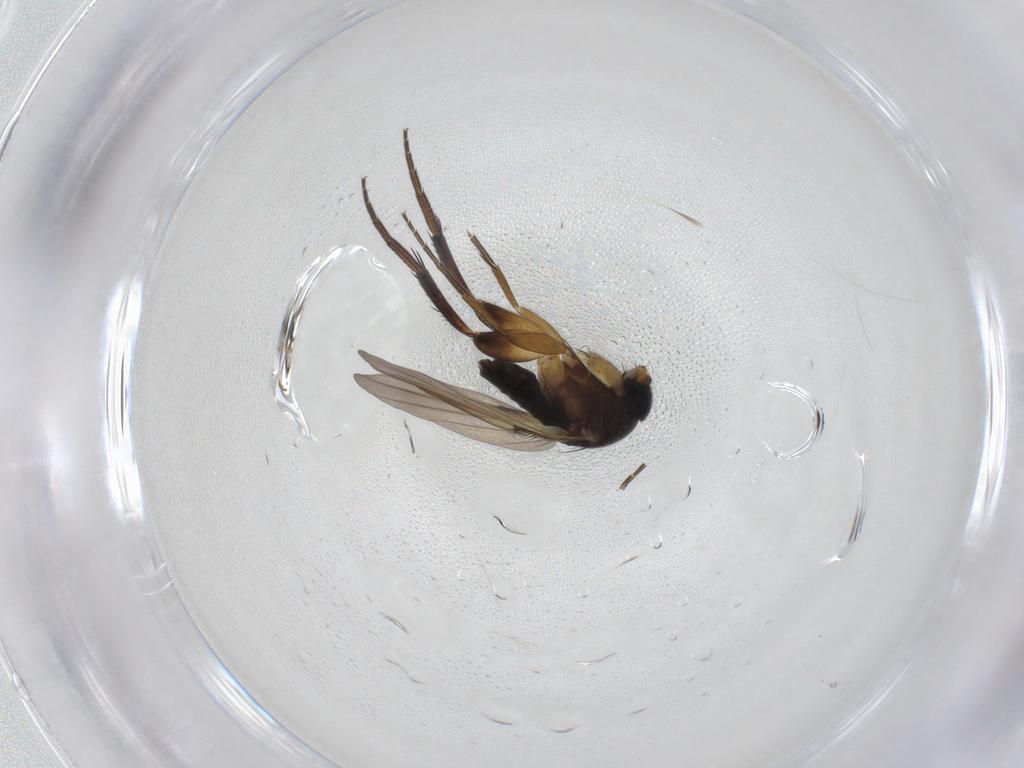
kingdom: Animalia
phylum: Arthropoda
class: Insecta
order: Diptera
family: Phoridae
